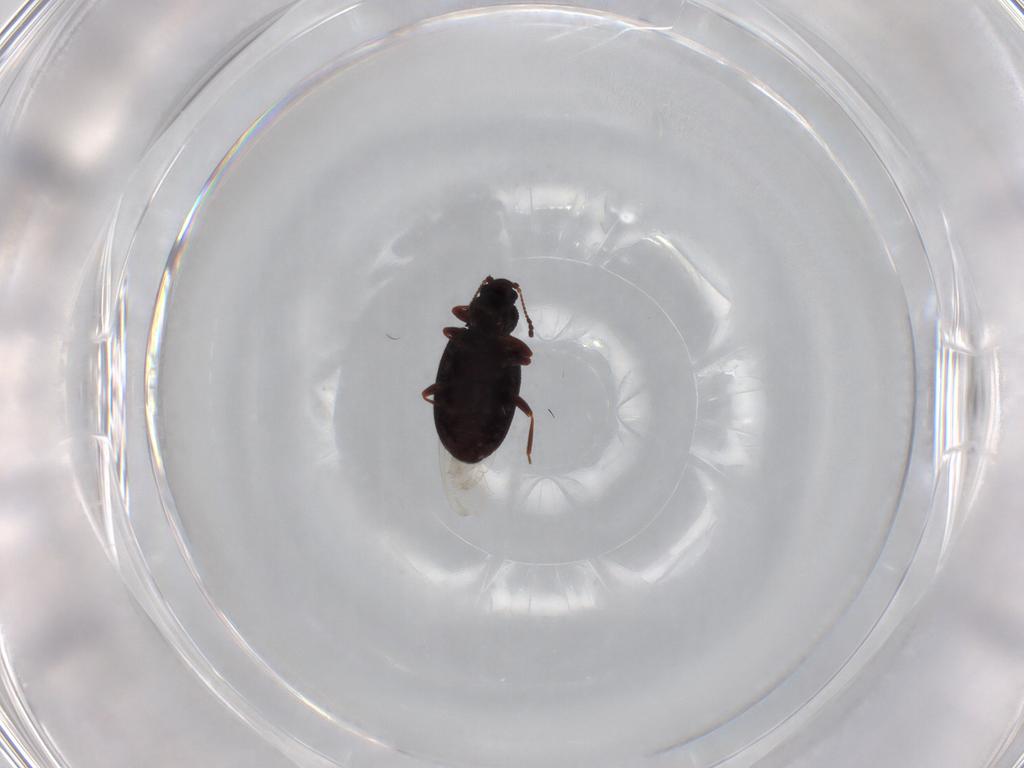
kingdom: Animalia
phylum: Arthropoda
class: Insecta
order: Coleoptera
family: Latridiidae
